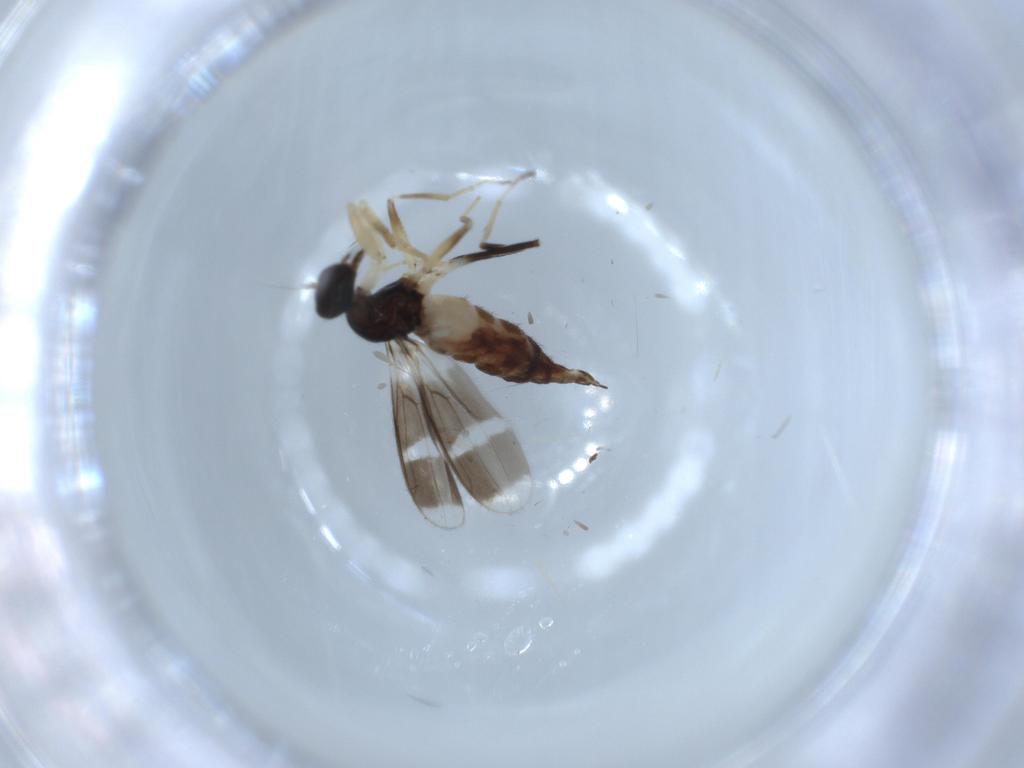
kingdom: Animalia
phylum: Arthropoda
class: Insecta
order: Diptera
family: Hybotidae
